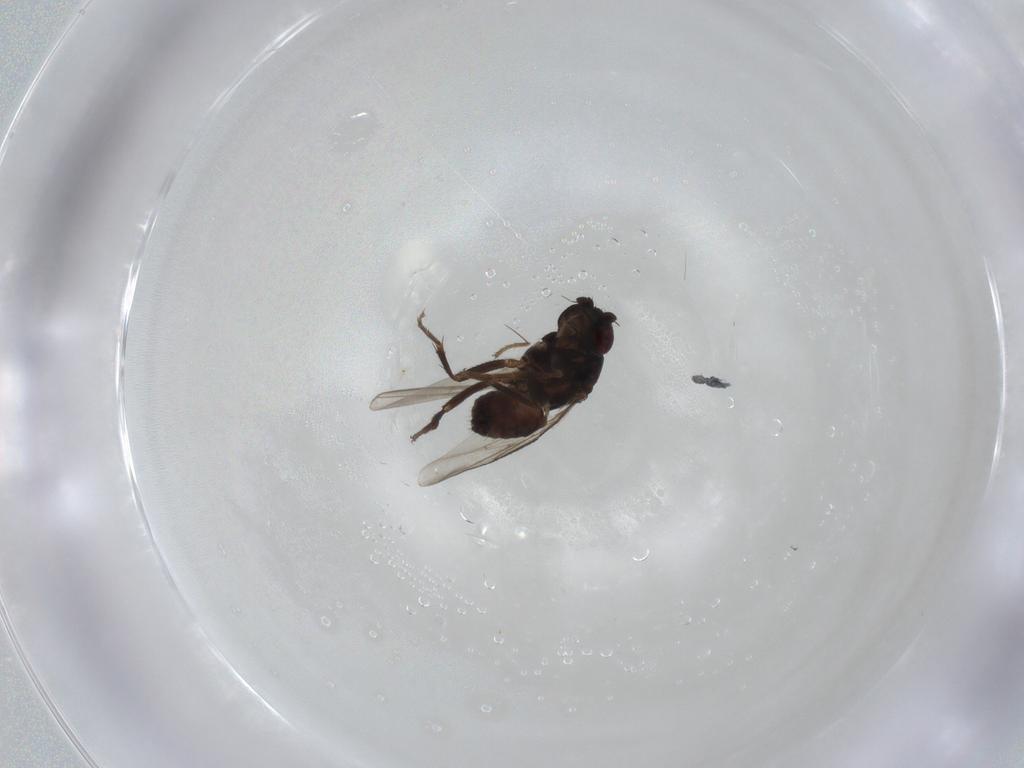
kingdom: Animalia
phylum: Arthropoda
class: Insecta
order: Diptera
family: Sphaeroceridae
